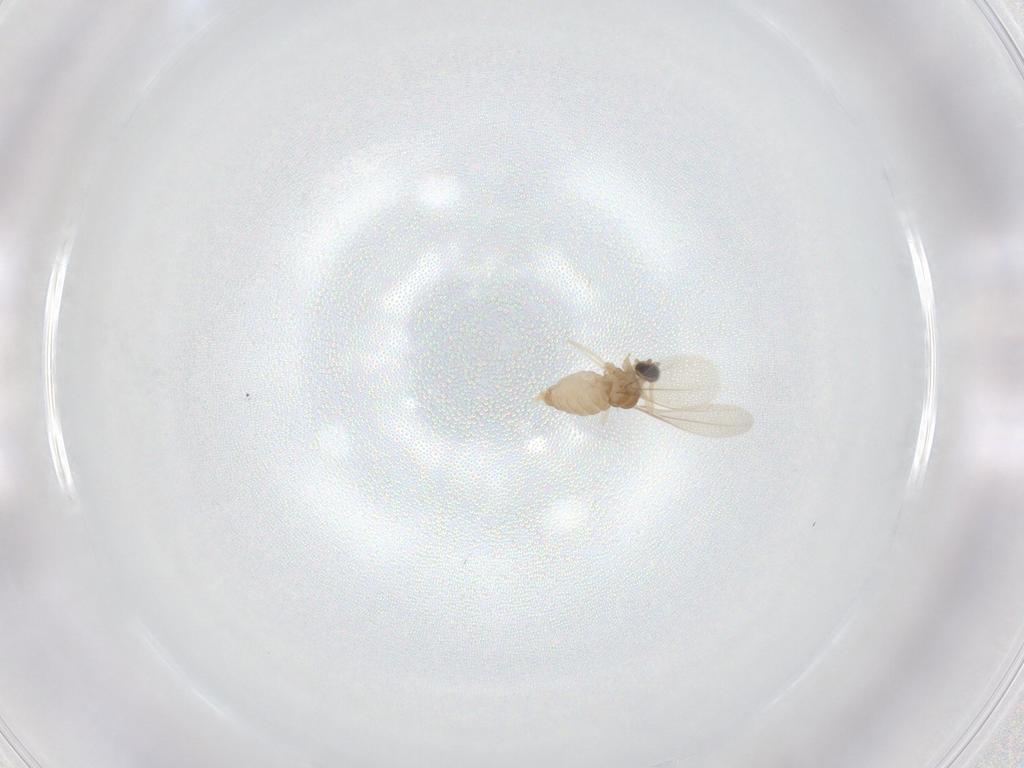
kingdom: Animalia
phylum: Arthropoda
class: Insecta
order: Diptera
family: Cecidomyiidae
